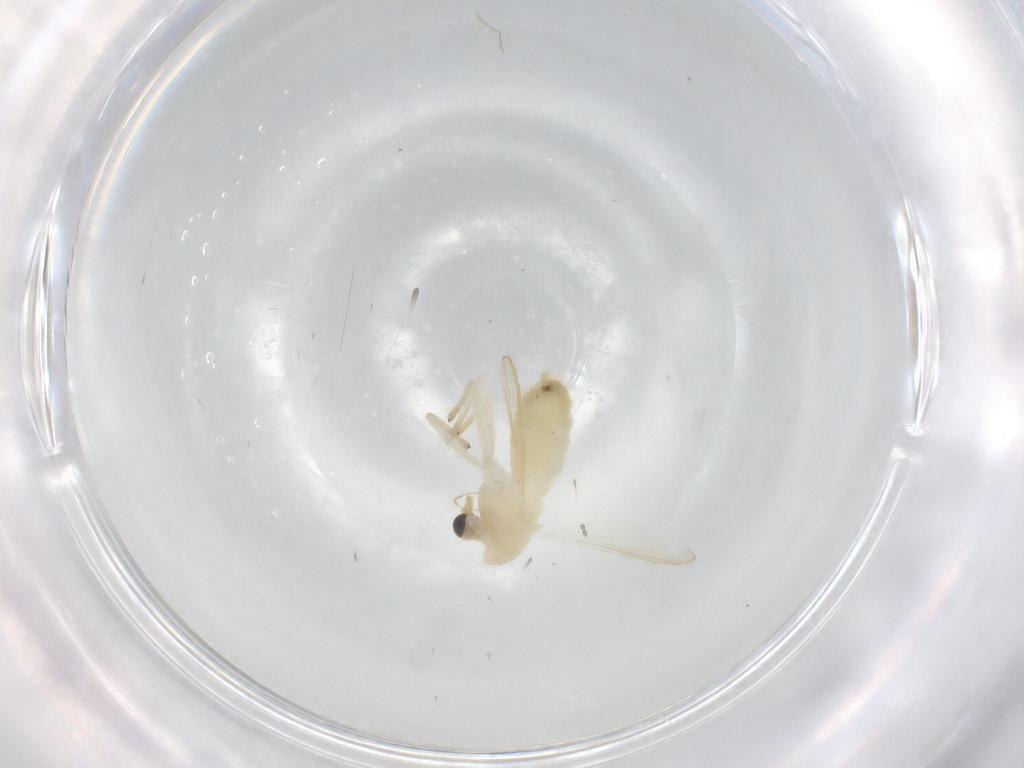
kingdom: Animalia
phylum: Arthropoda
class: Insecta
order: Diptera
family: Chironomidae
